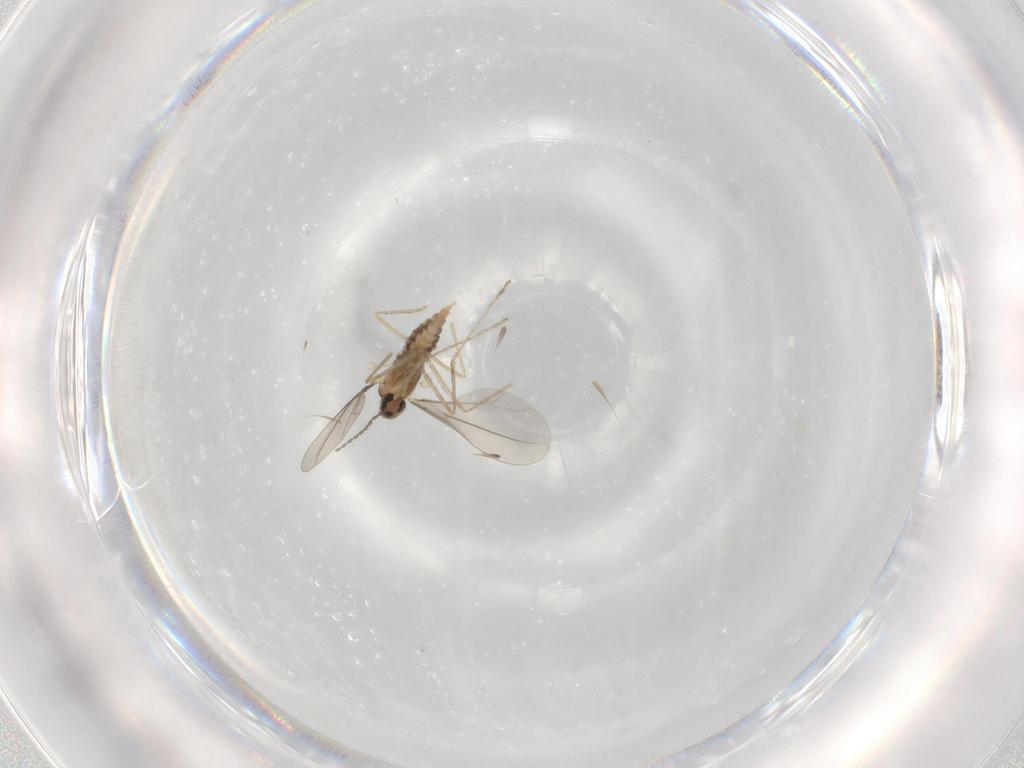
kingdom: Animalia
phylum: Arthropoda
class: Insecta
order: Diptera
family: Cecidomyiidae
